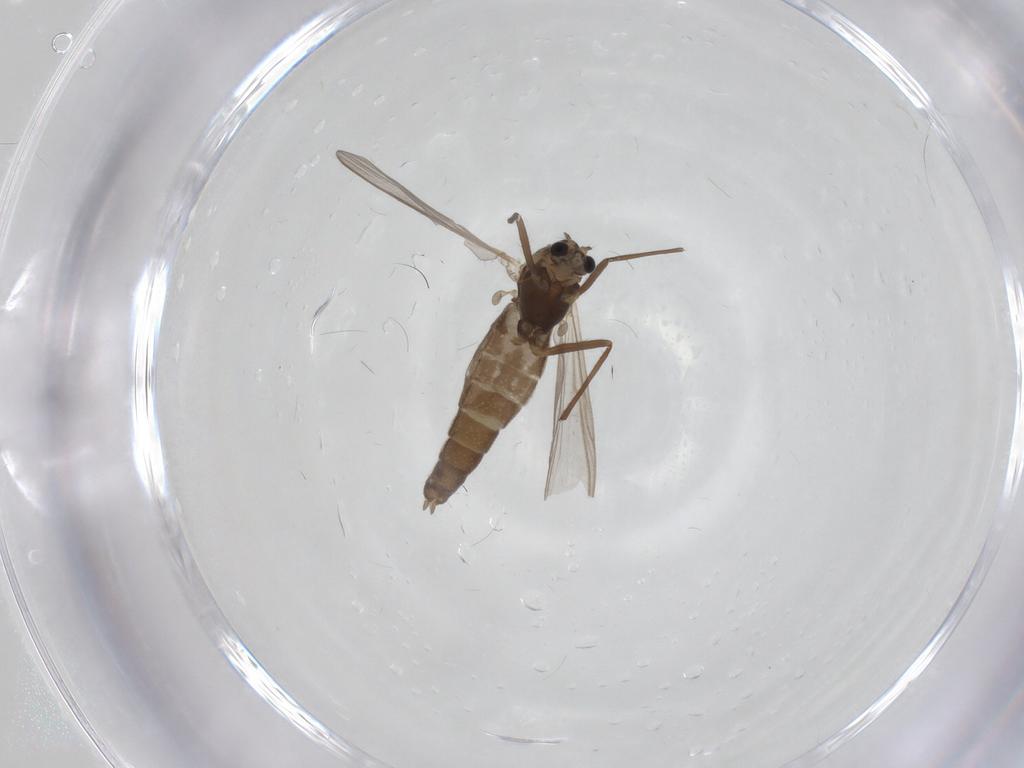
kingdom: Animalia
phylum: Arthropoda
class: Insecta
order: Diptera
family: Chironomidae
